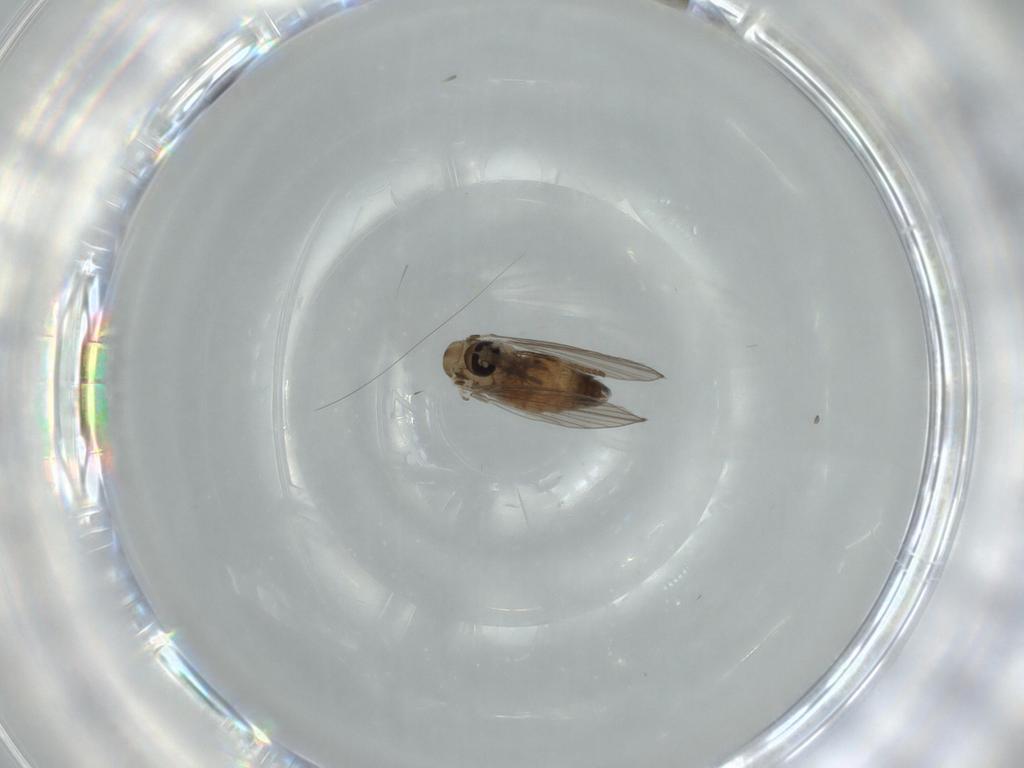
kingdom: Animalia
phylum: Arthropoda
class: Insecta
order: Diptera
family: Psychodidae
